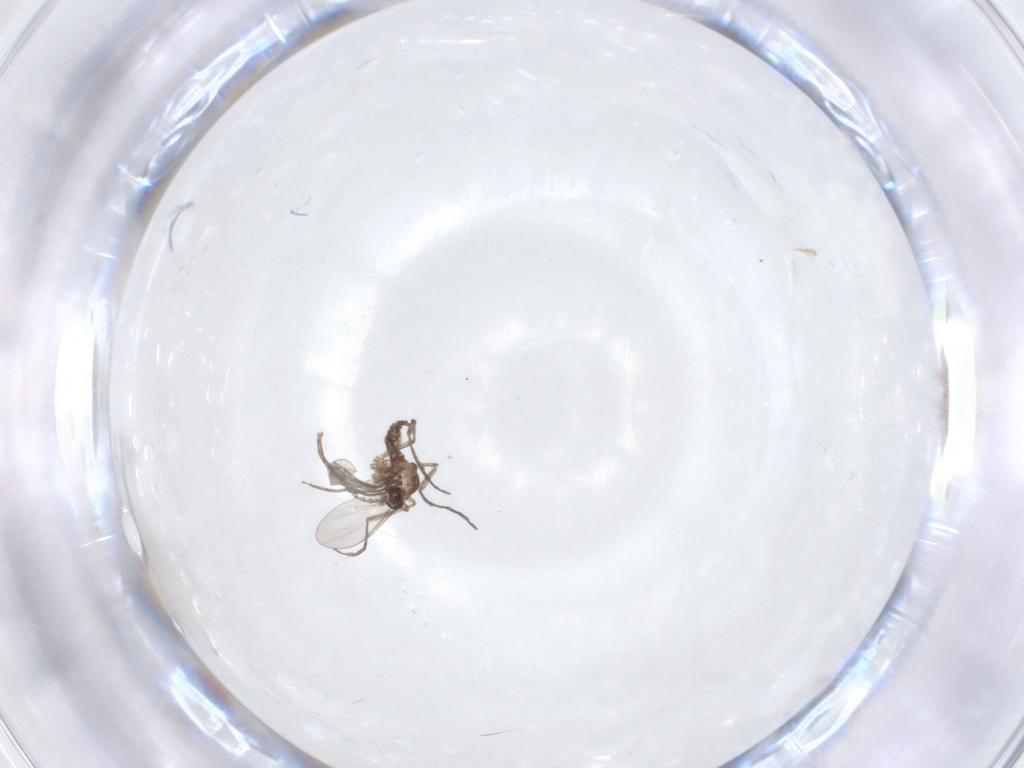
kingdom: Animalia
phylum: Arthropoda
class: Insecta
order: Diptera
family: Cecidomyiidae
